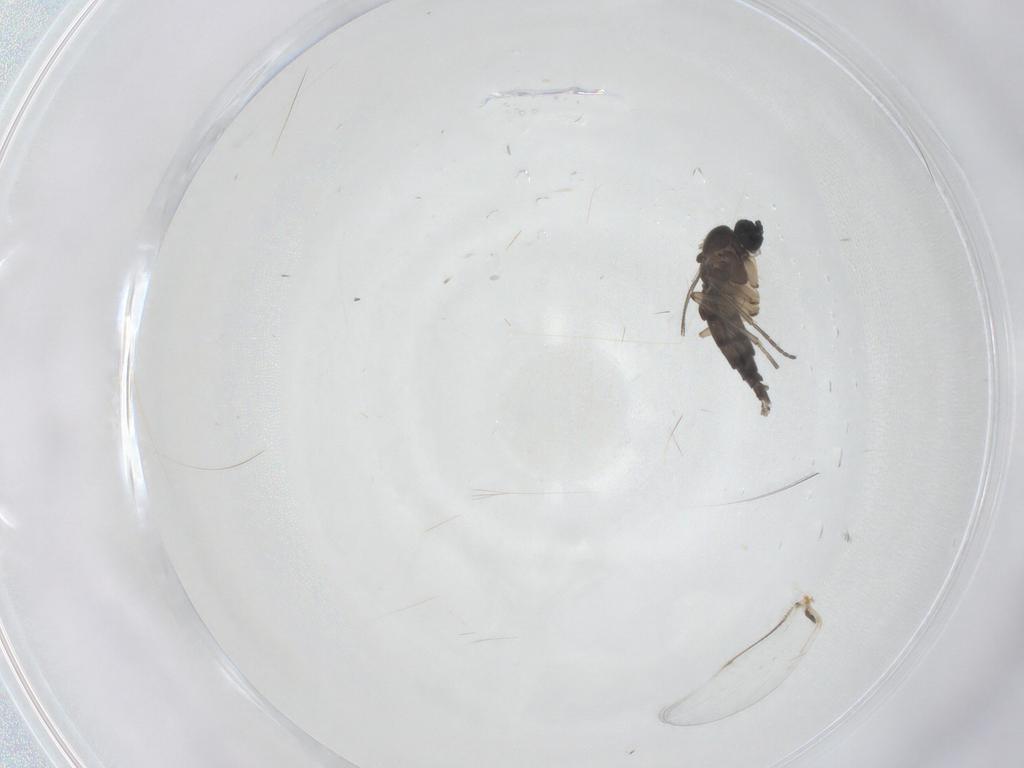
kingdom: Animalia
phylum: Arthropoda
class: Insecta
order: Diptera
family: Sciaridae
